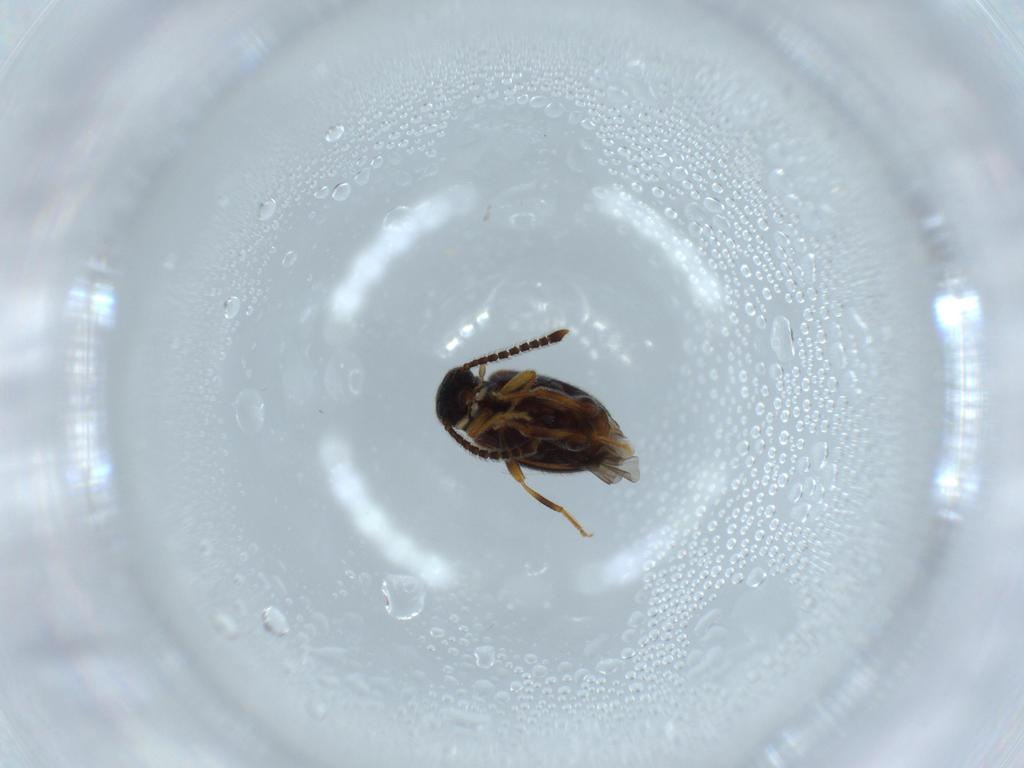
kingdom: Animalia
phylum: Arthropoda
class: Insecta
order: Coleoptera
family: Aderidae
